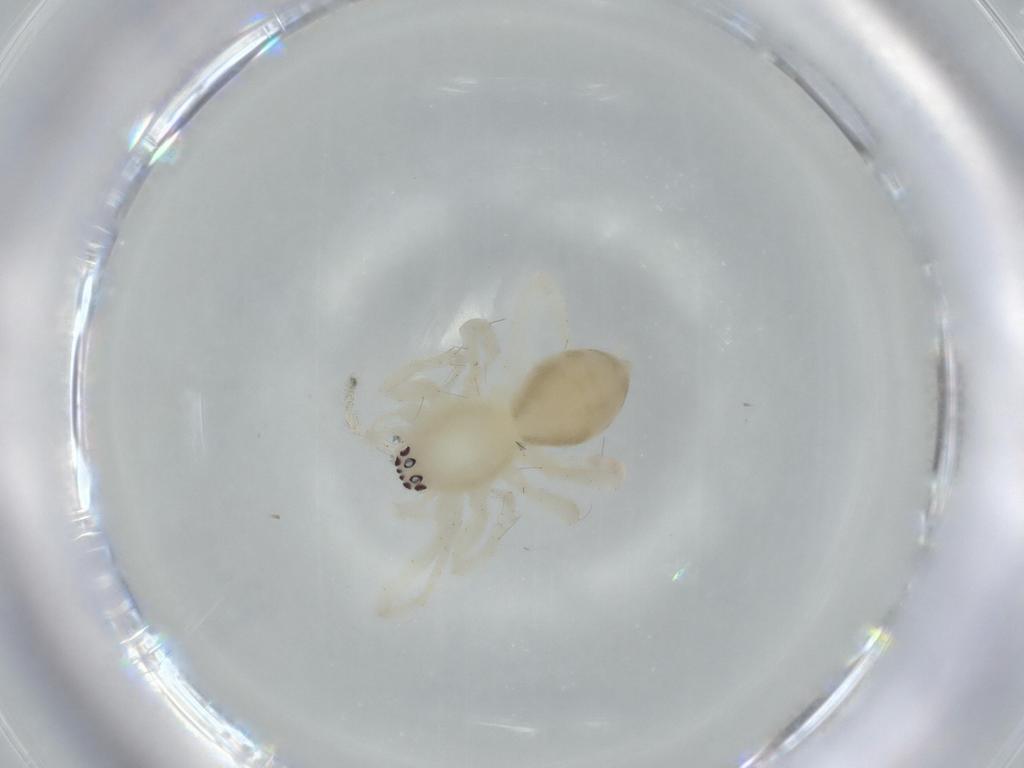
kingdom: Animalia
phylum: Arthropoda
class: Arachnida
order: Araneae
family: Anyphaenidae
